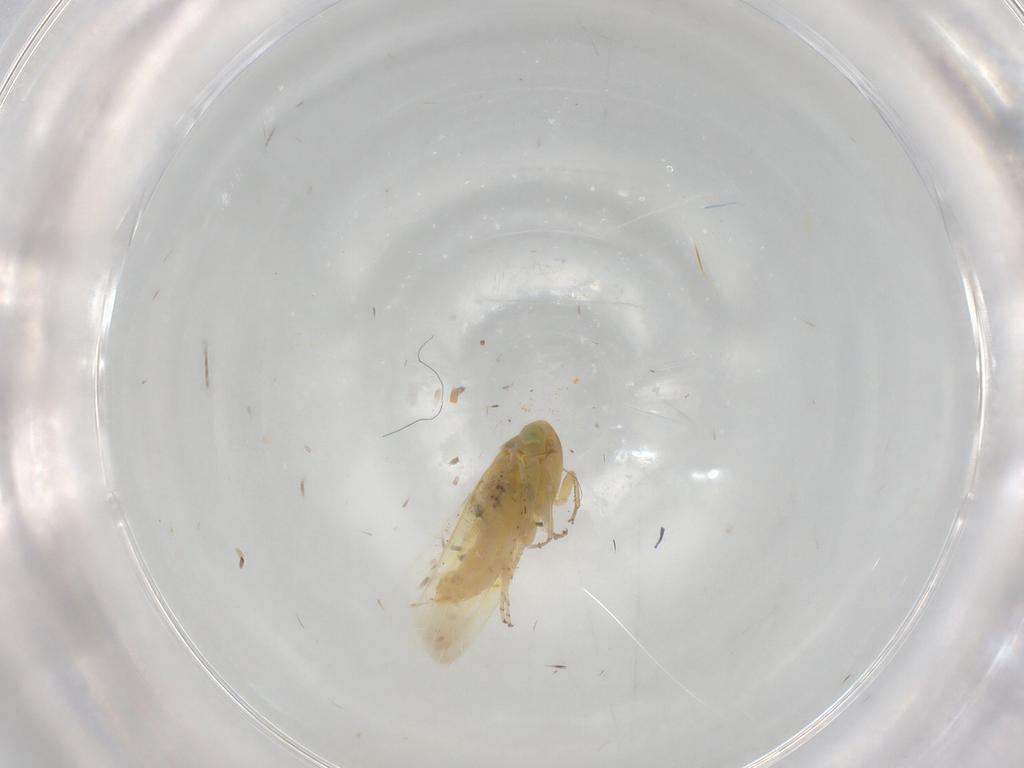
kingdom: Animalia
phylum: Arthropoda
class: Insecta
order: Hemiptera
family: Cicadellidae
